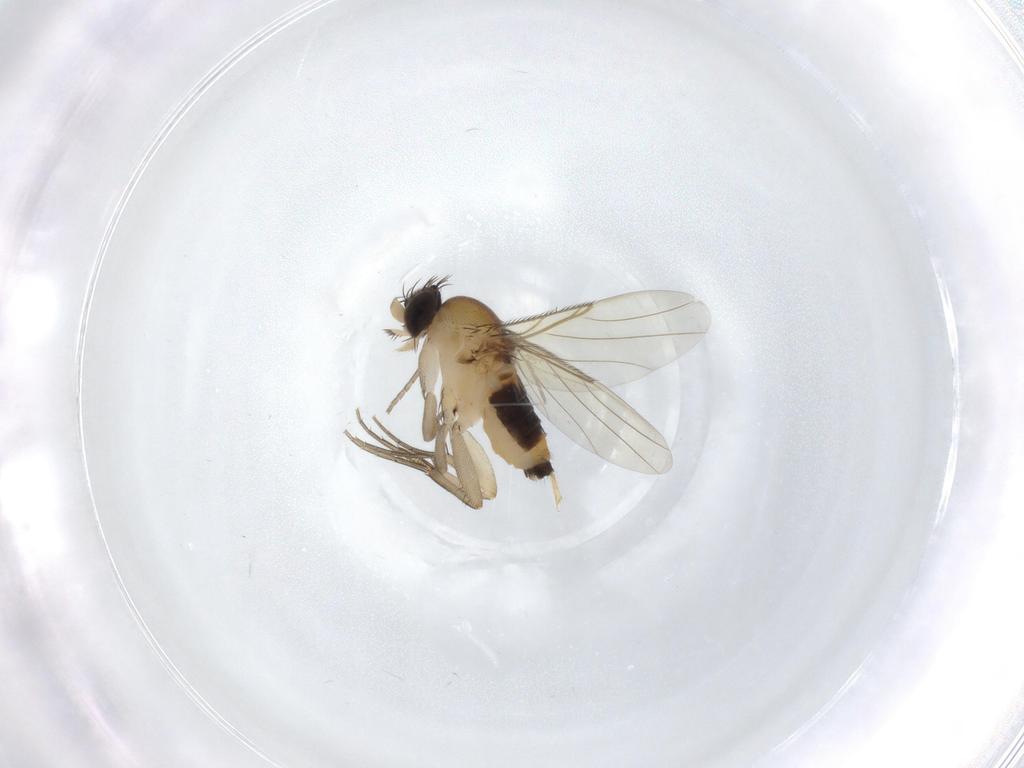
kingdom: Animalia
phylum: Arthropoda
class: Insecta
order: Diptera
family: Phoridae
